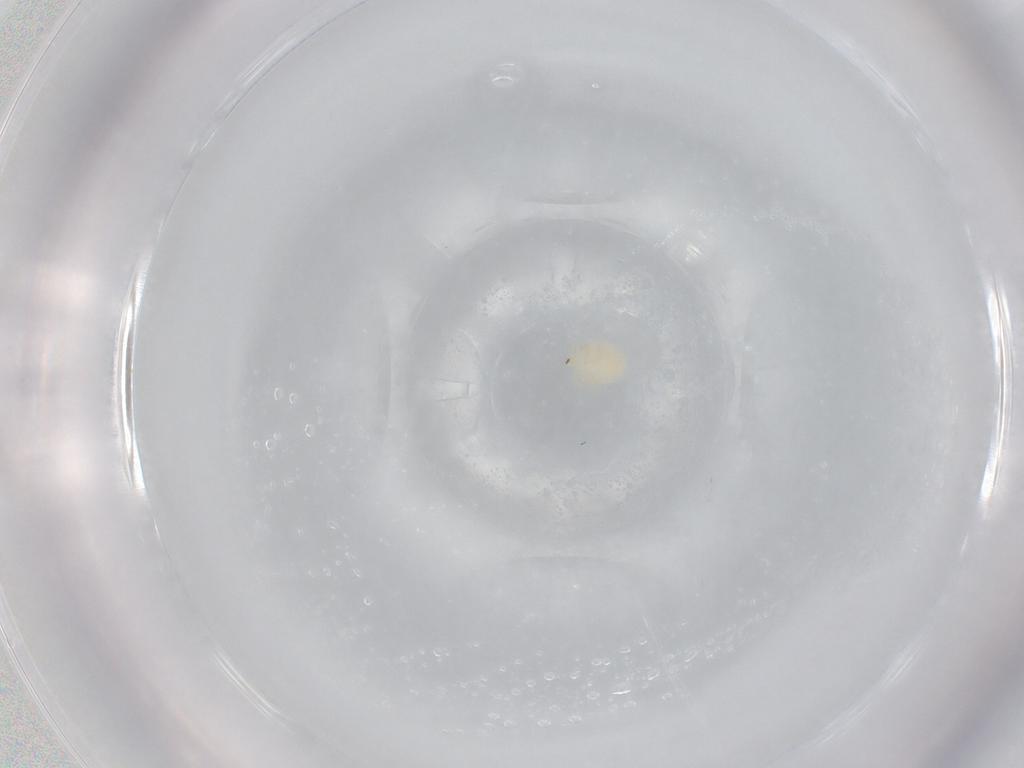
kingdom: Animalia
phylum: Arthropoda
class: Arachnida
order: Trombidiformes
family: Hydryphantidae
